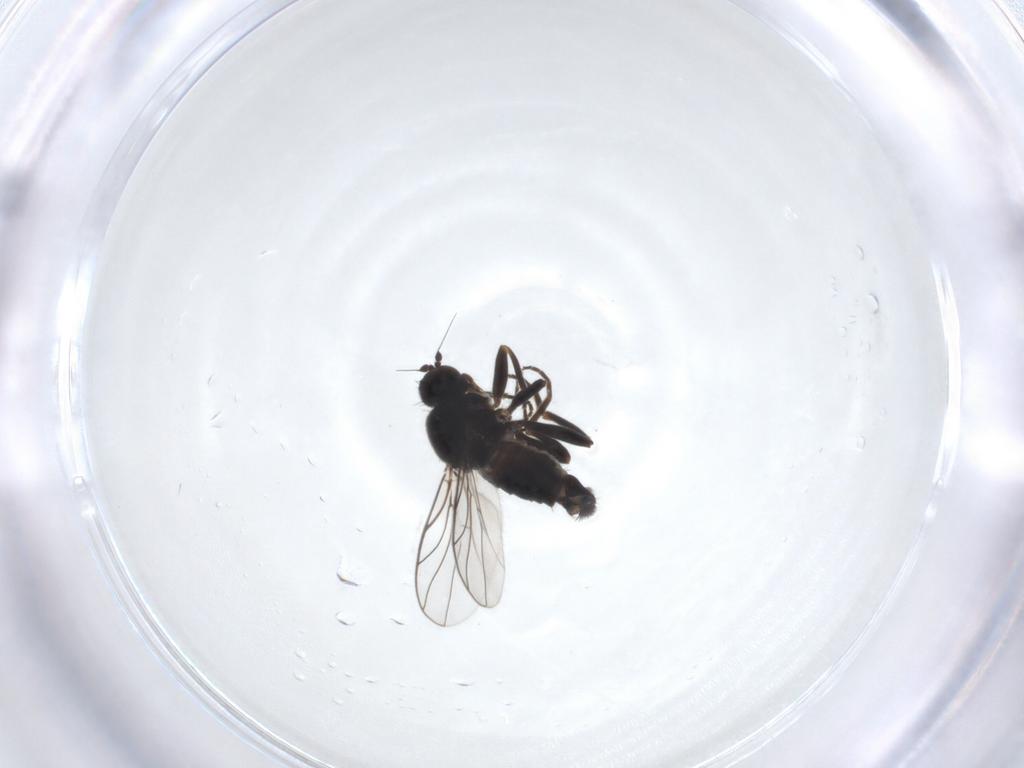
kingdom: Animalia
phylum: Arthropoda
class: Insecta
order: Diptera
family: Hybotidae
